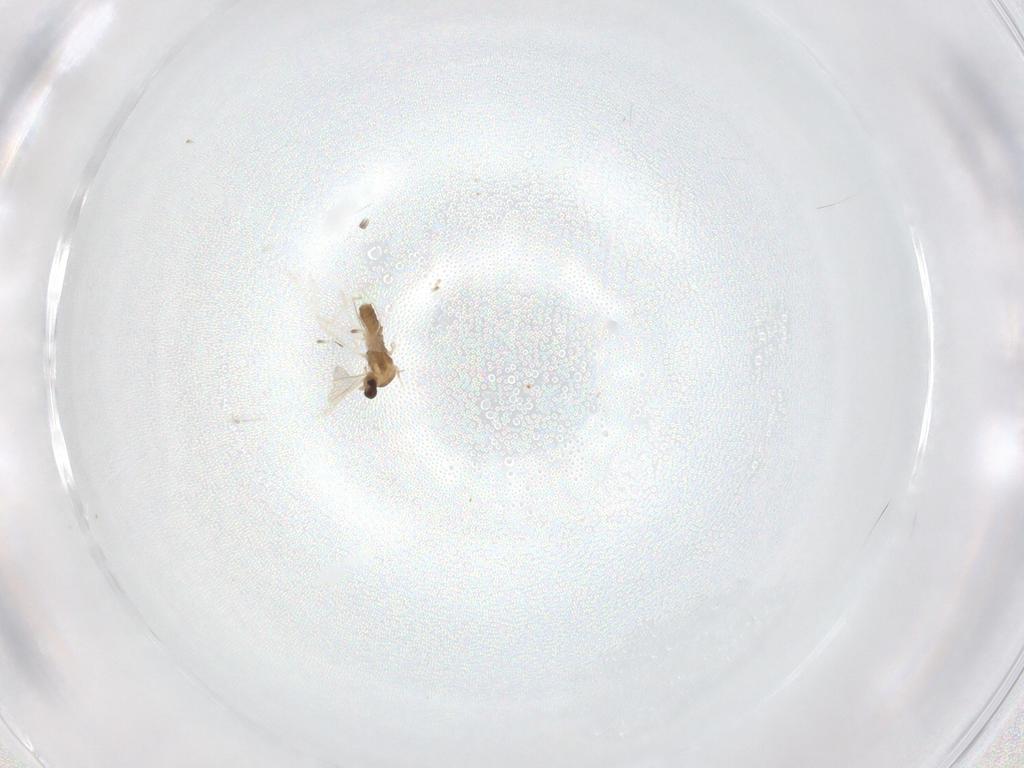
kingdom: Animalia
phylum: Arthropoda
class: Insecta
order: Diptera
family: Cecidomyiidae
